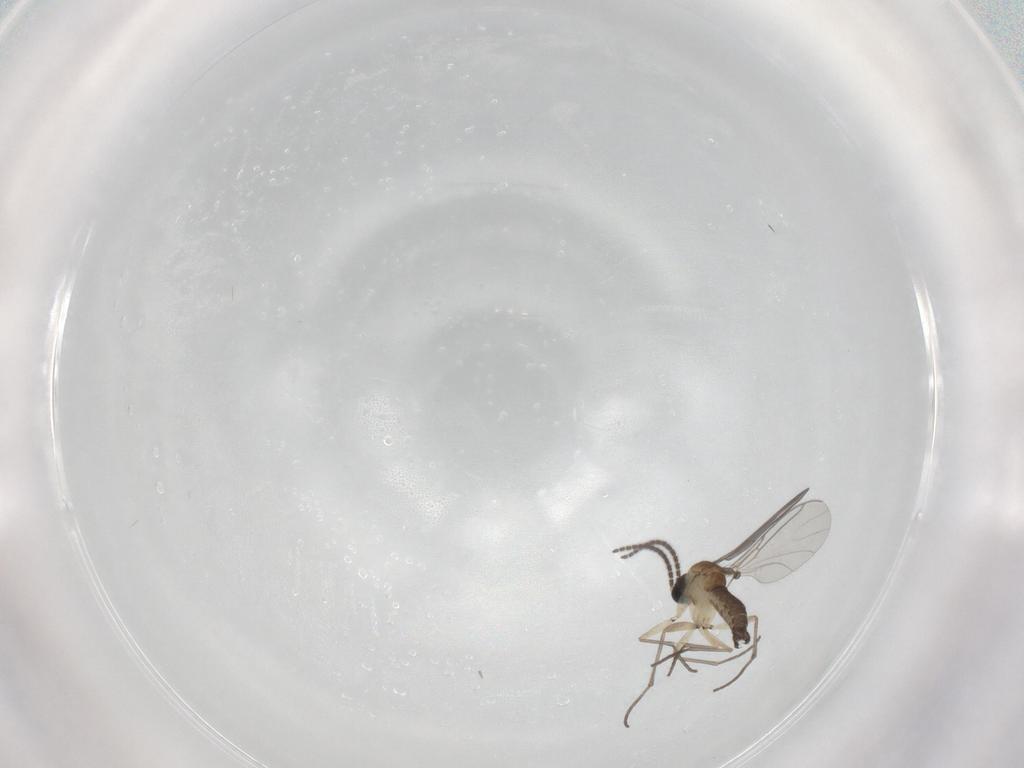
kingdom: Animalia
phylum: Arthropoda
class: Insecta
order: Diptera
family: Sciaridae
